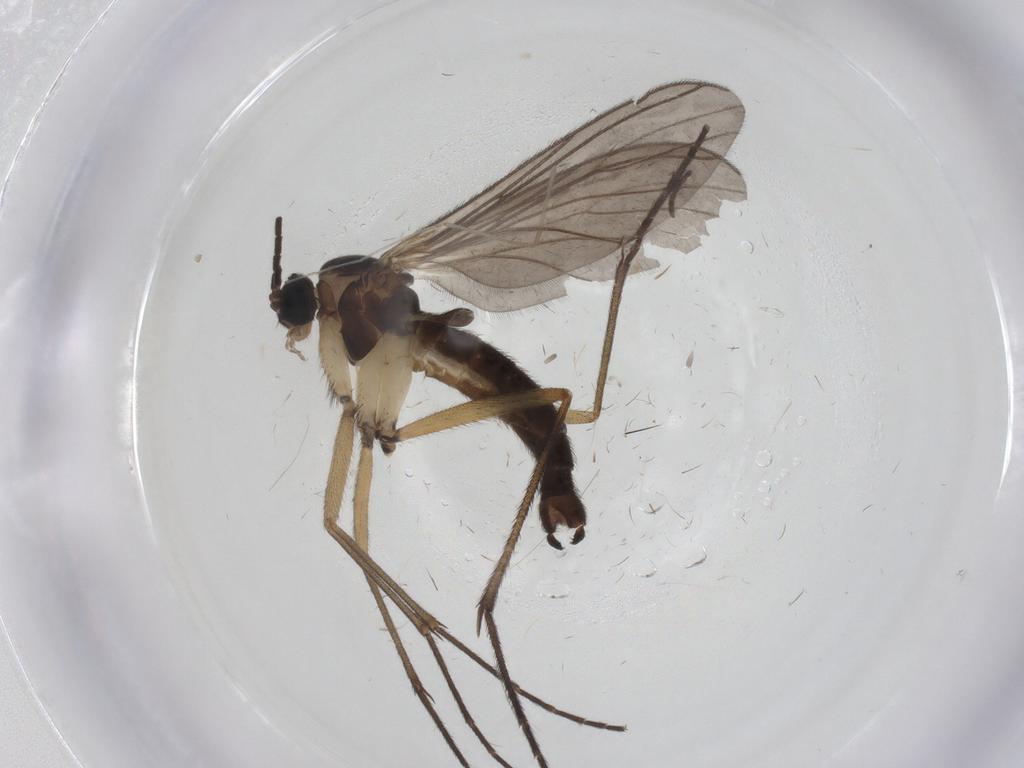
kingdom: Animalia
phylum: Arthropoda
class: Insecta
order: Diptera
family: Sciaridae
